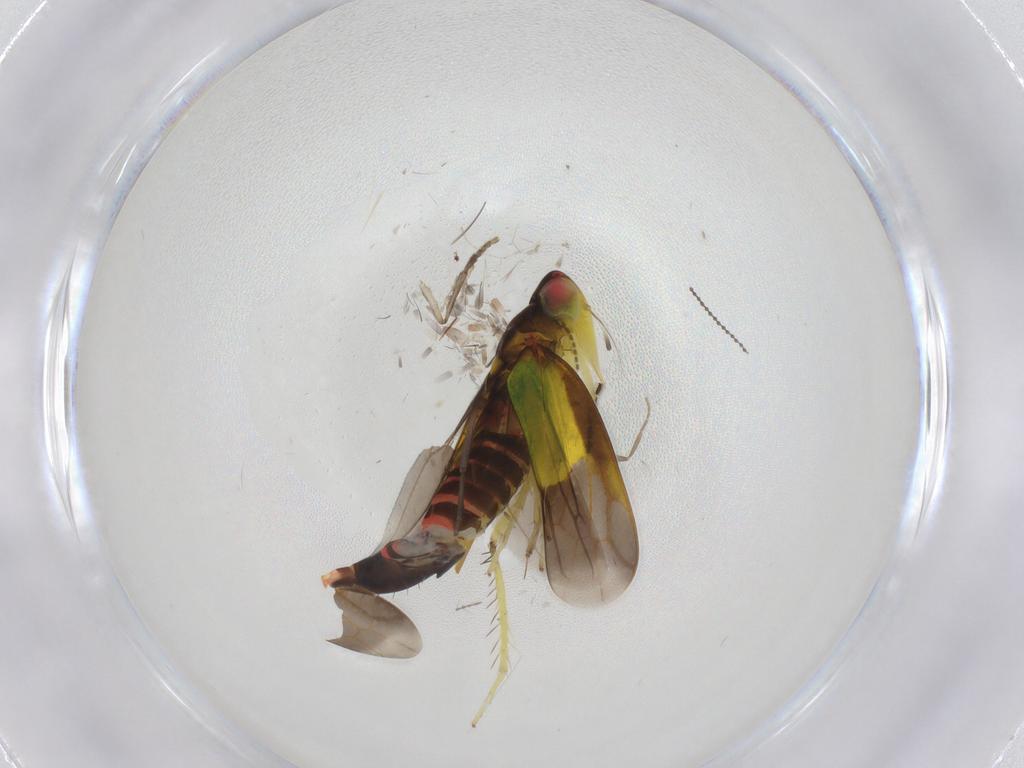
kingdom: Animalia
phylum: Arthropoda
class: Insecta
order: Hemiptera
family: Cicadellidae
